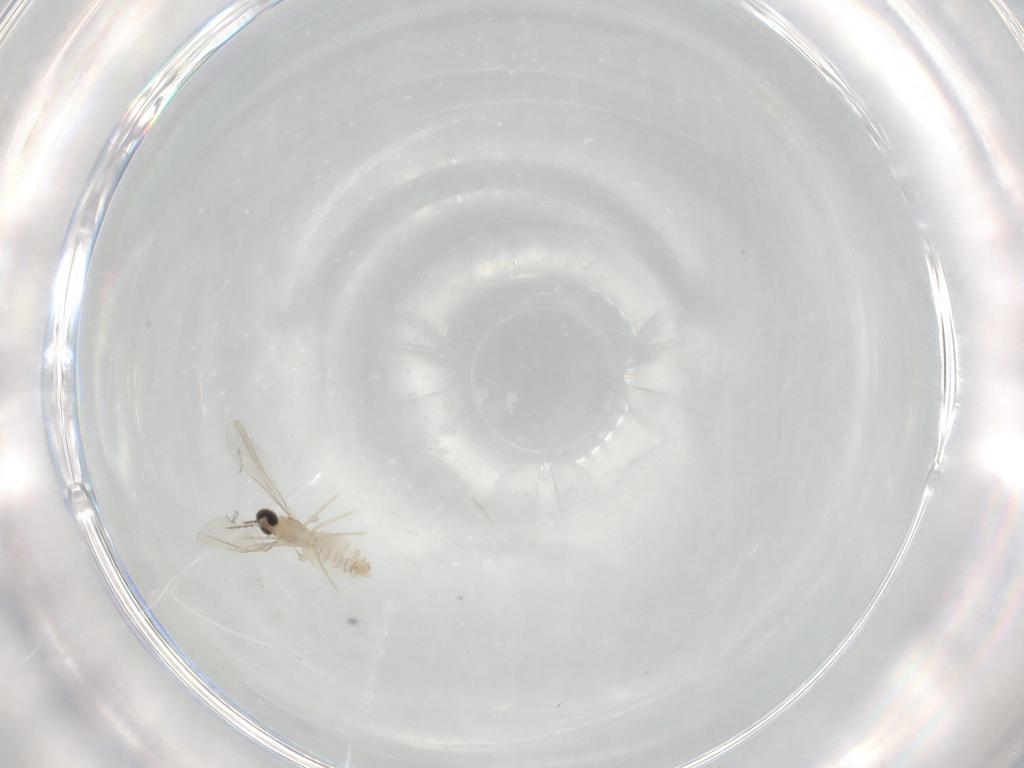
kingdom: Animalia
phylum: Arthropoda
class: Insecta
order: Diptera
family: Cecidomyiidae
